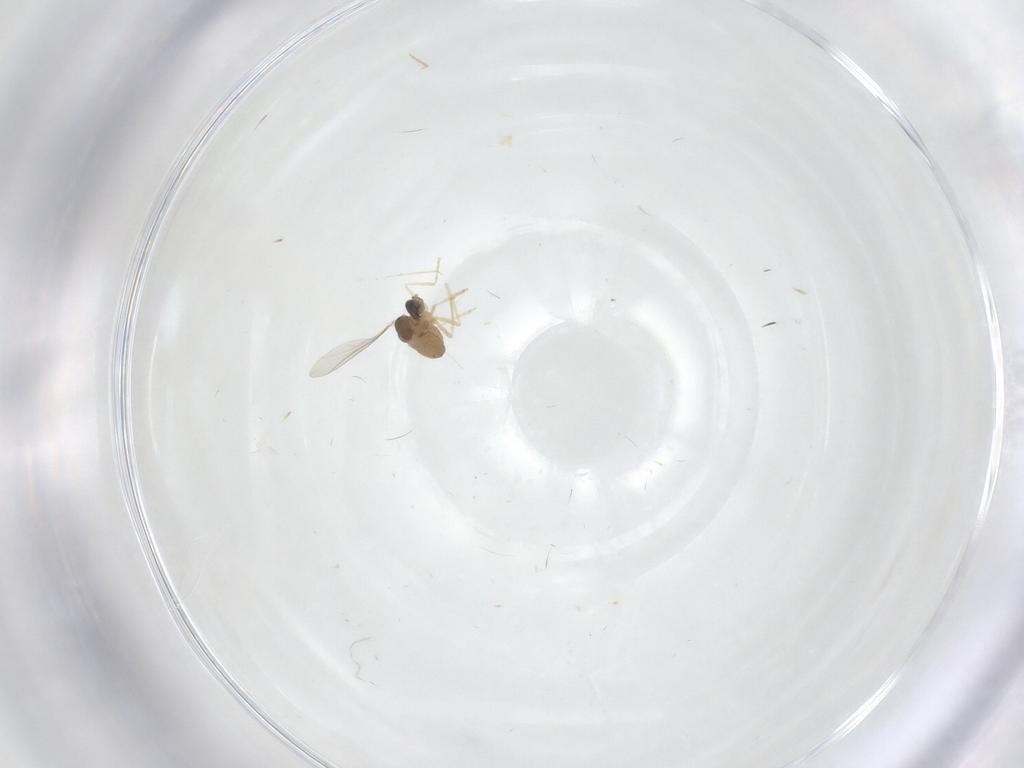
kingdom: Animalia
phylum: Arthropoda
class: Insecta
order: Diptera
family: Cecidomyiidae
